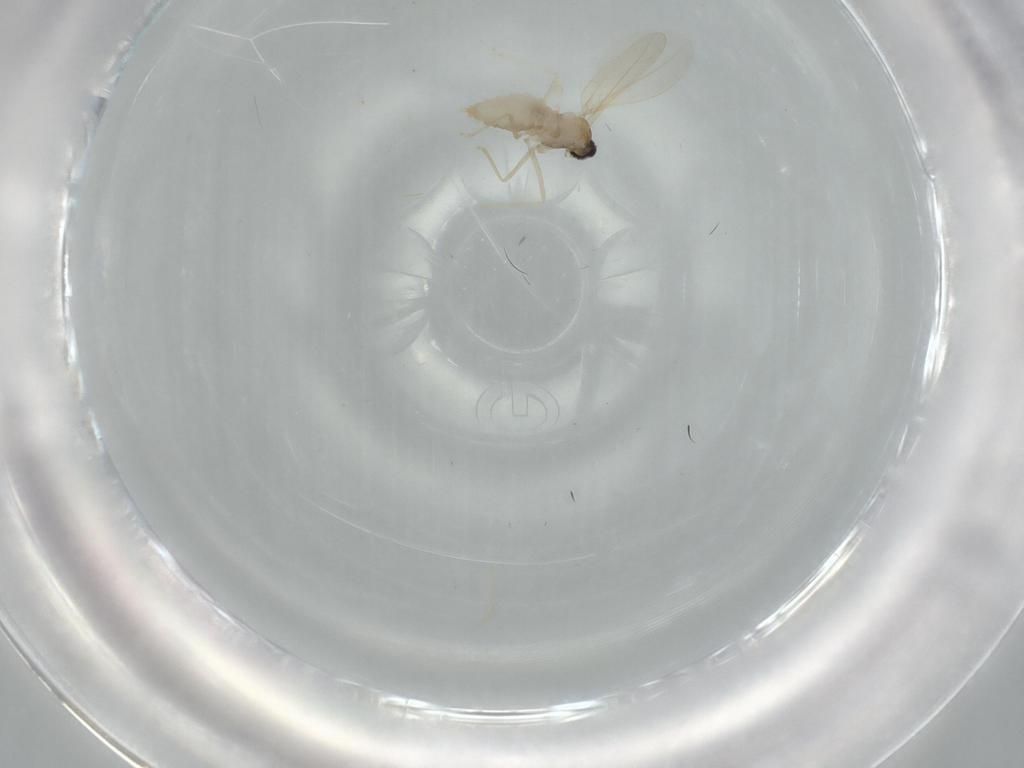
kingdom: Animalia
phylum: Arthropoda
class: Insecta
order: Diptera
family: Cecidomyiidae
